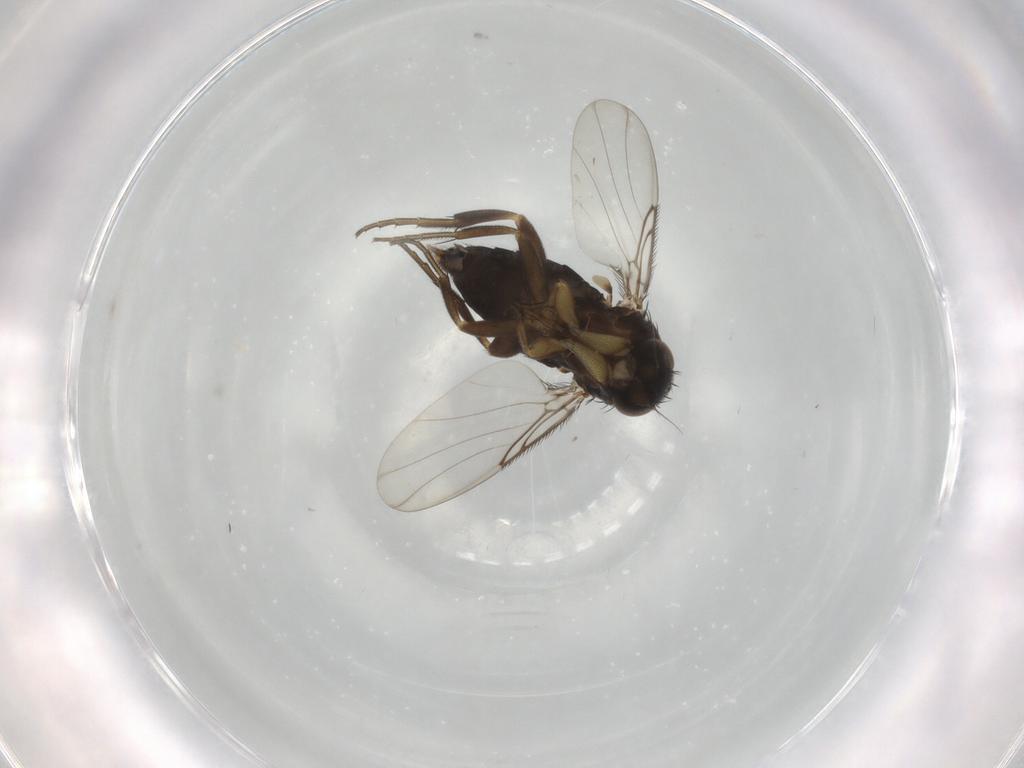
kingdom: Animalia
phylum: Arthropoda
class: Insecta
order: Diptera
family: Phoridae
